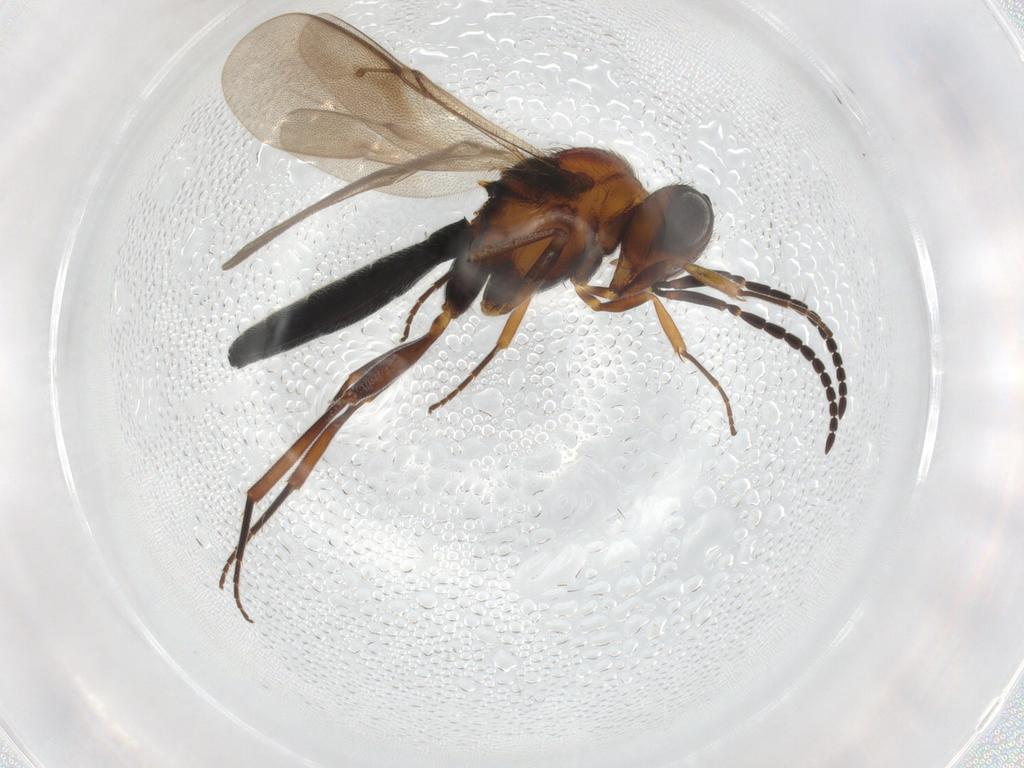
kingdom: Animalia
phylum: Arthropoda
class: Insecta
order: Hymenoptera
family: Scelionidae
